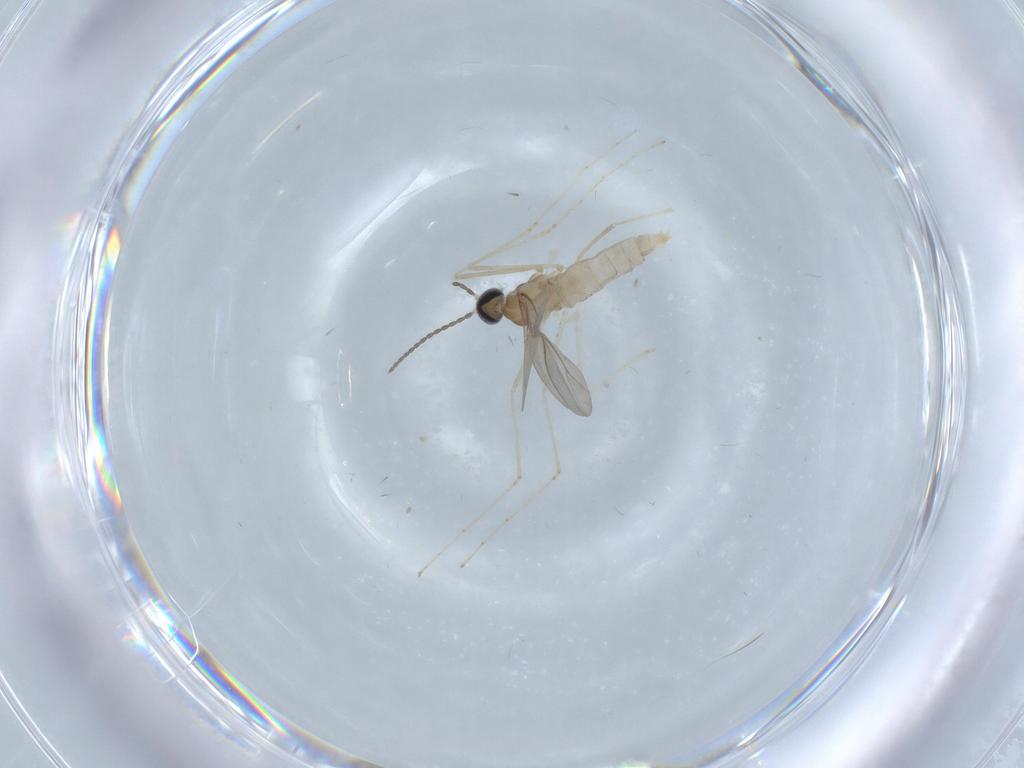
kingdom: Animalia
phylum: Arthropoda
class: Insecta
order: Diptera
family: Cecidomyiidae
